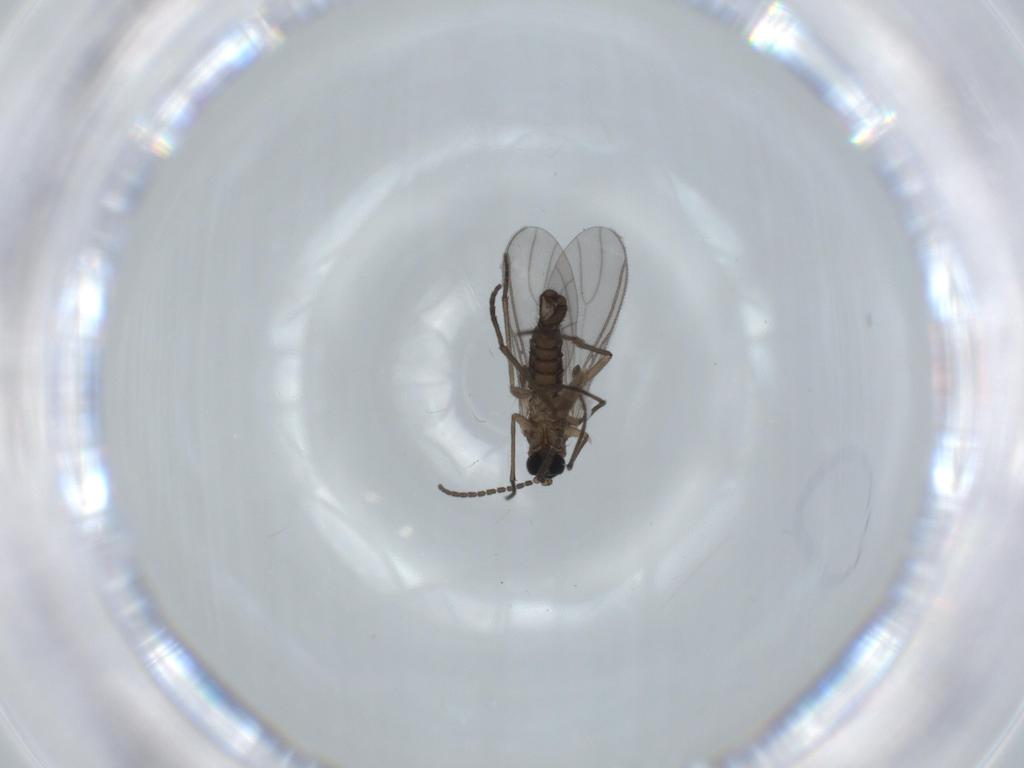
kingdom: Animalia
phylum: Arthropoda
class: Insecta
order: Diptera
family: Sciaridae
